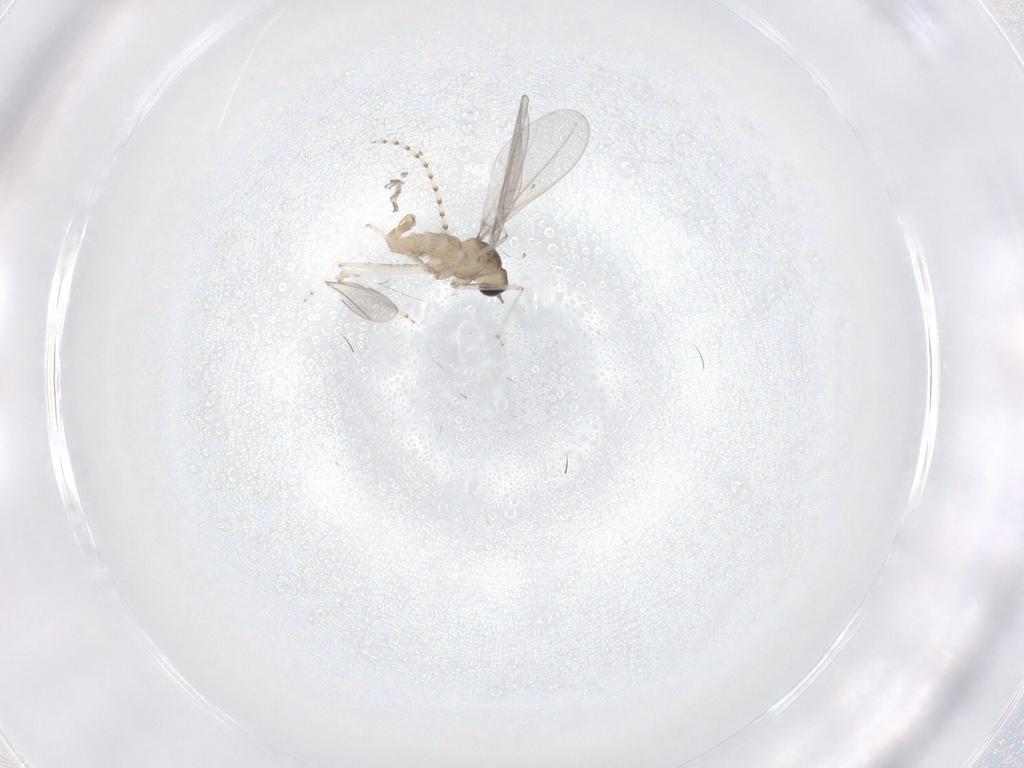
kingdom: Animalia
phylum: Arthropoda
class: Insecta
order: Diptera
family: Cecidomyiidae
